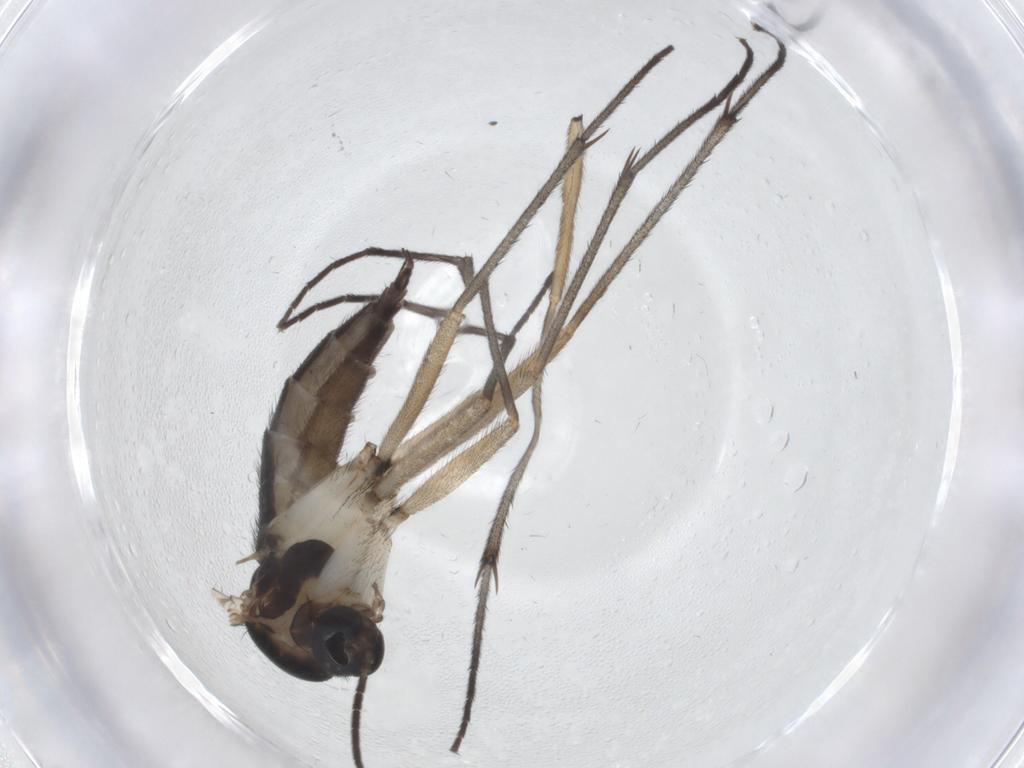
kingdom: Animalia
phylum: Arthropoda
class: Insecta
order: Diptera
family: Sciaridae
